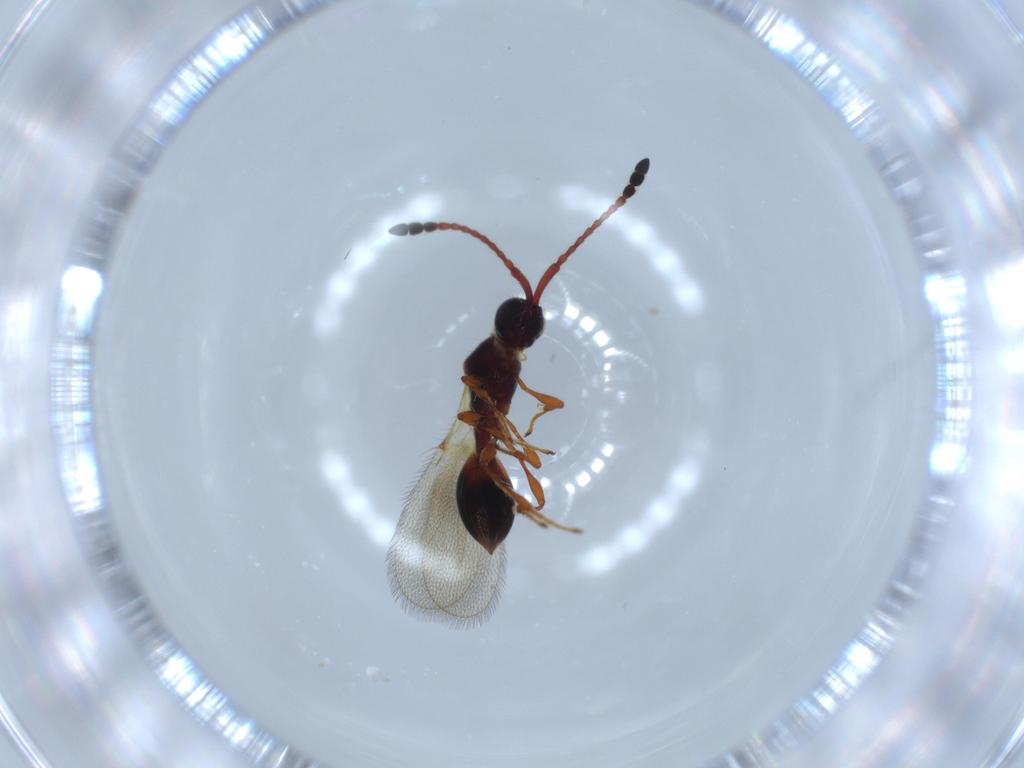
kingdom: Animalia
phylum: Arthropoda
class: Insecta
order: Hymenoptera
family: Diapriidae
